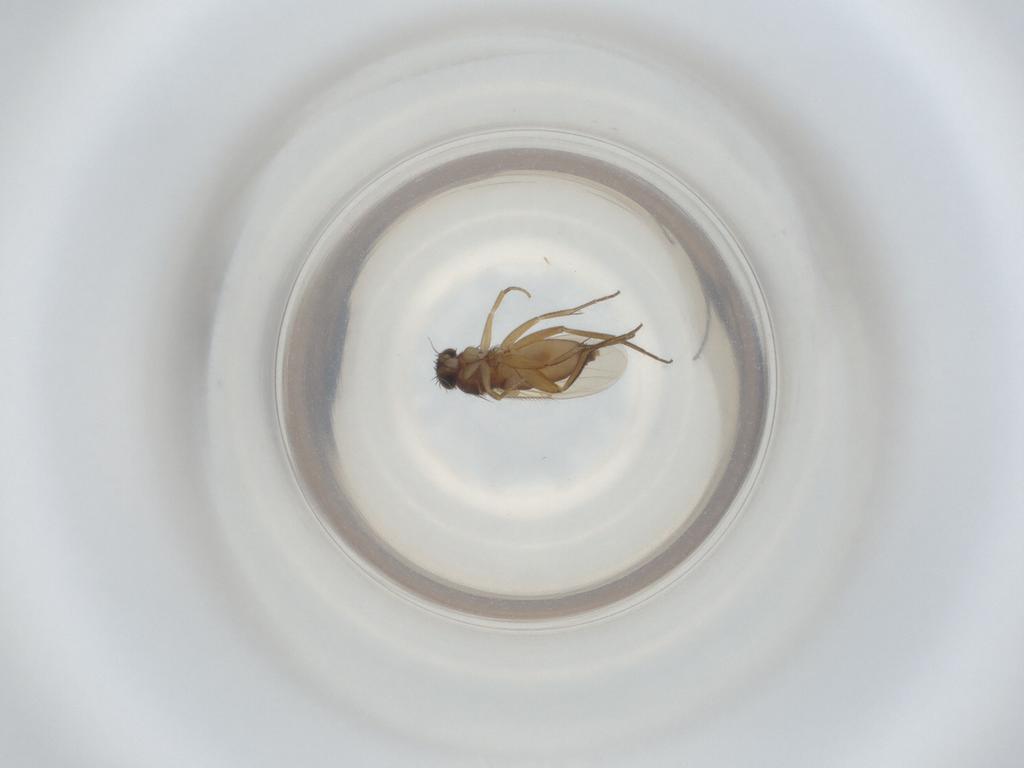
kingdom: Animalia
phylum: Arthropoda
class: Insecta
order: Diptera
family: Phoridae
